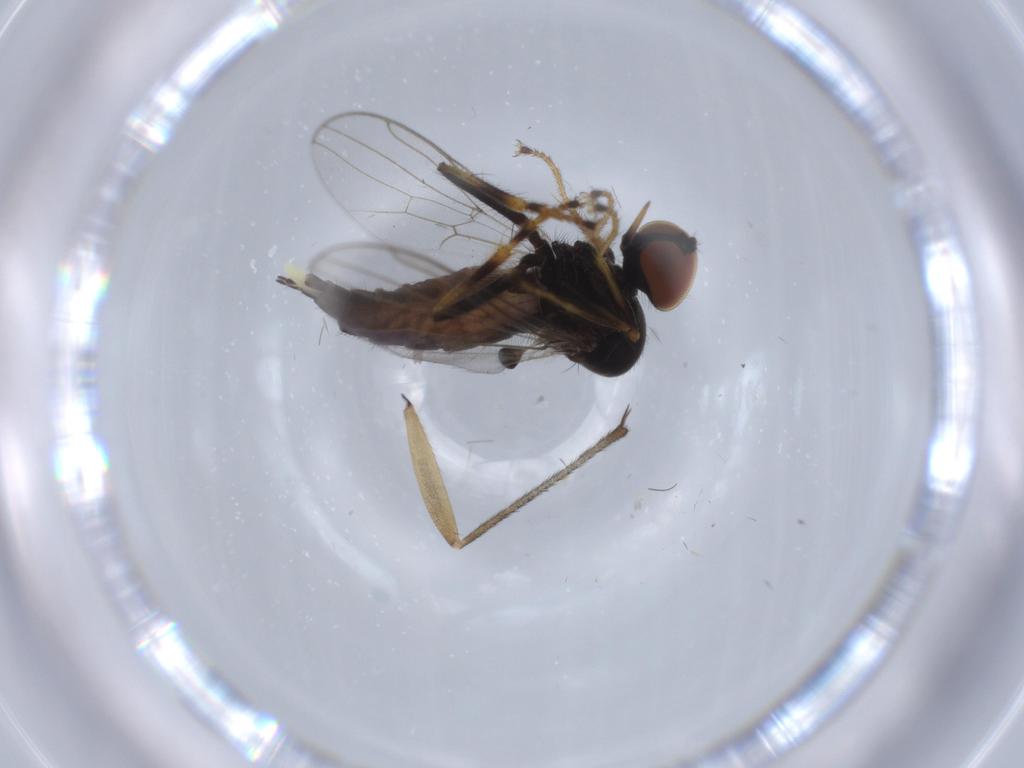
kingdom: Animalia
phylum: Arthropoda
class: Insecta
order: Diptera
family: Hybotidae
